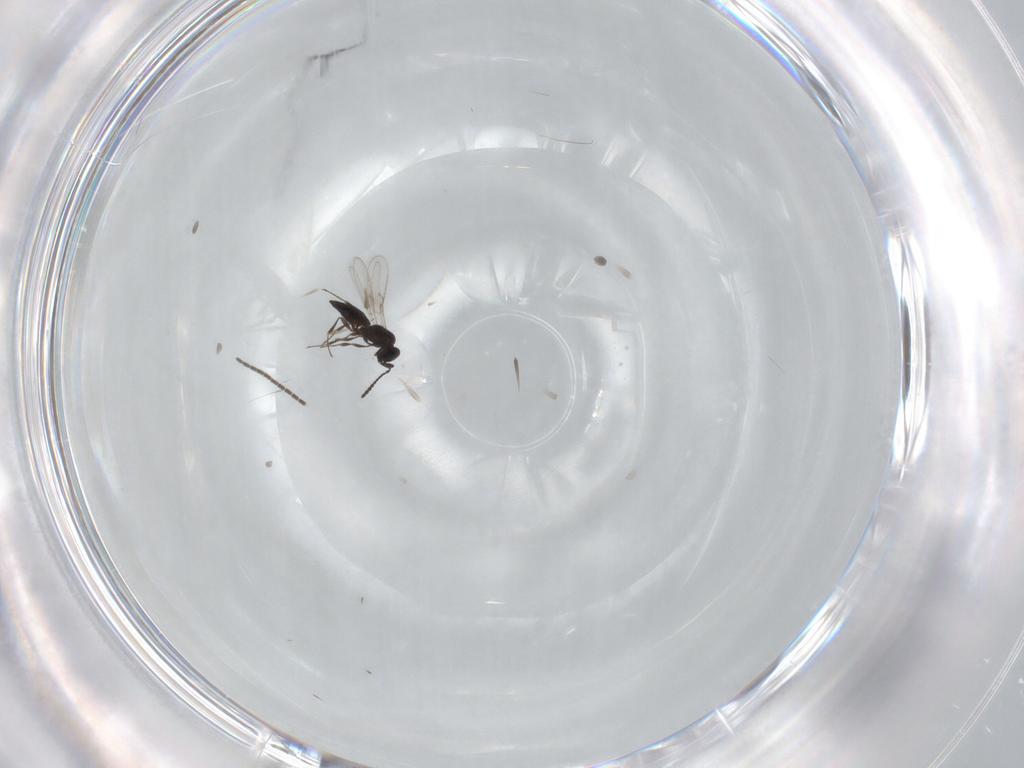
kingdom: Animalia
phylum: Arthropoda
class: Insecta
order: Hymenoptera
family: Scelionidae
